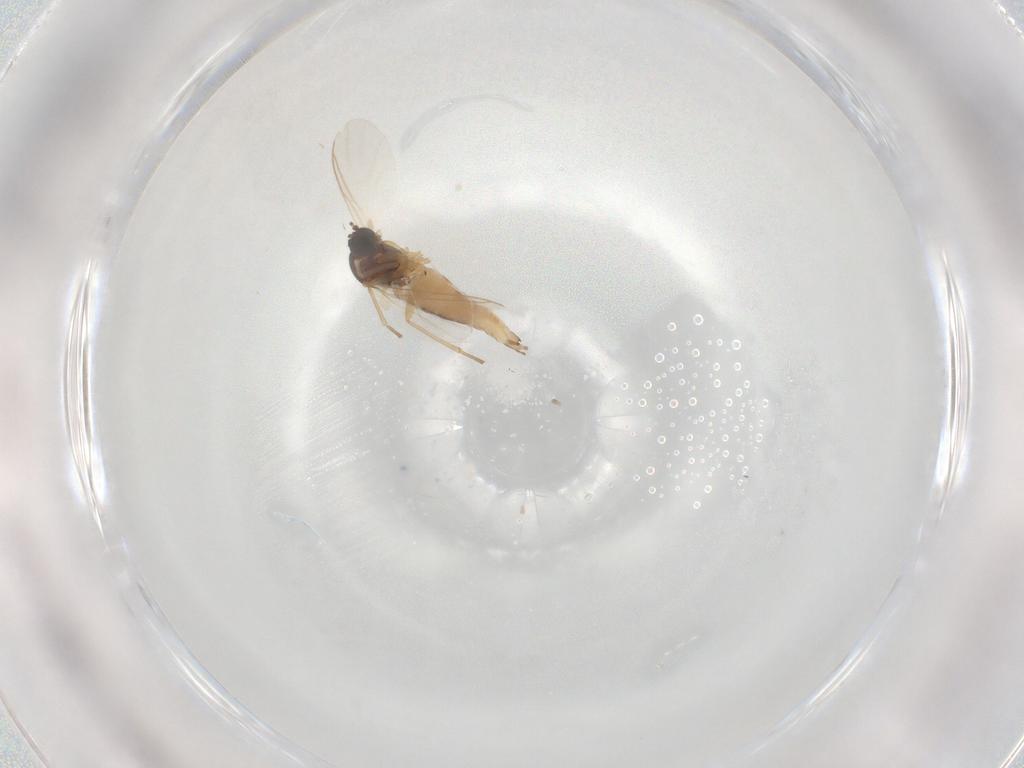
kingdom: Animalia
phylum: Arthropoda
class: Insecta
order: Diptera
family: Sciaridae
